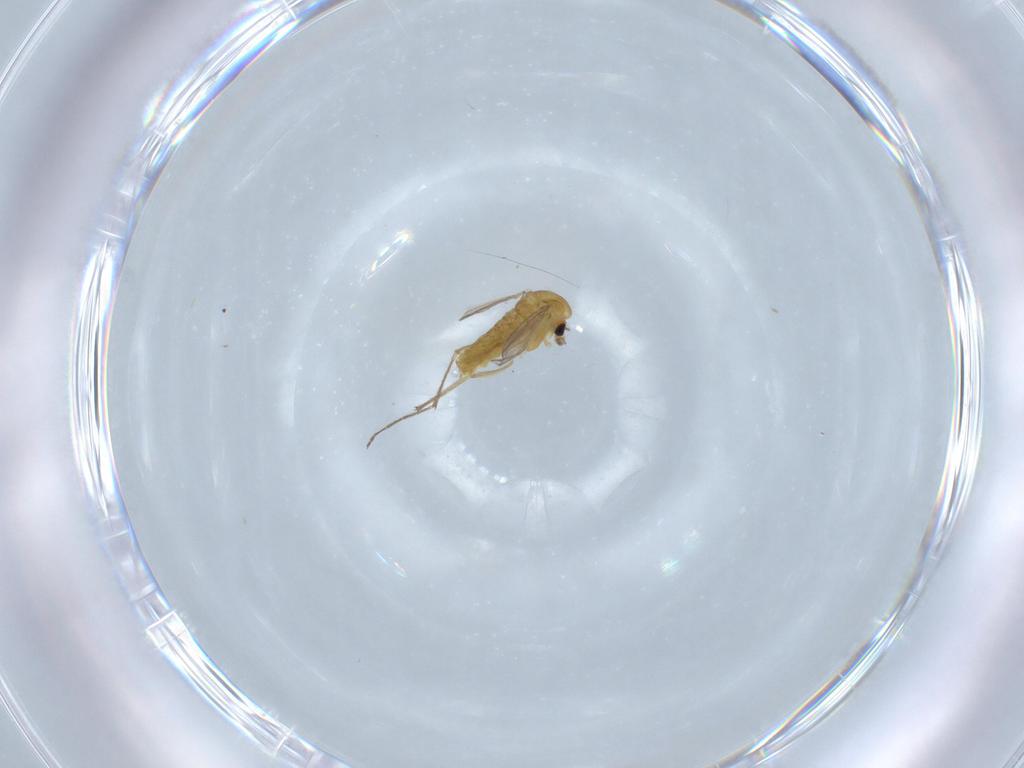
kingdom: Animalia
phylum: Arthropoda
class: Insecta
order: Diptera
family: Chironomidae
